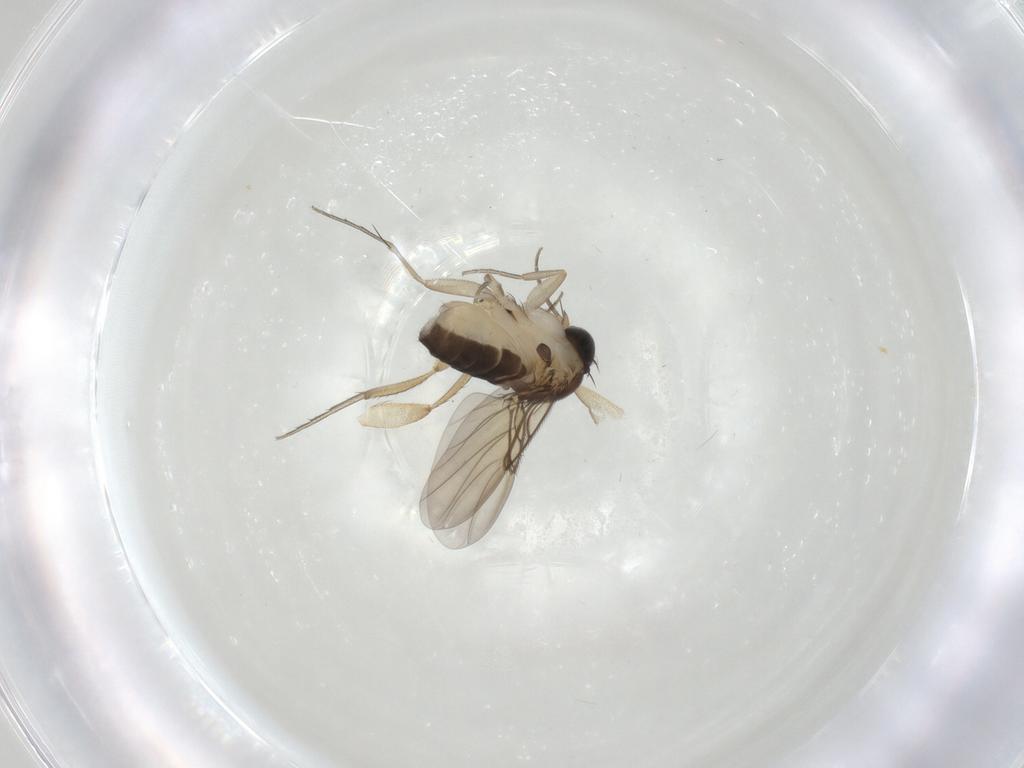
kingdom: Animalia
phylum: Arthropoda
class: Insecta
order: Diptera
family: Phoridae
